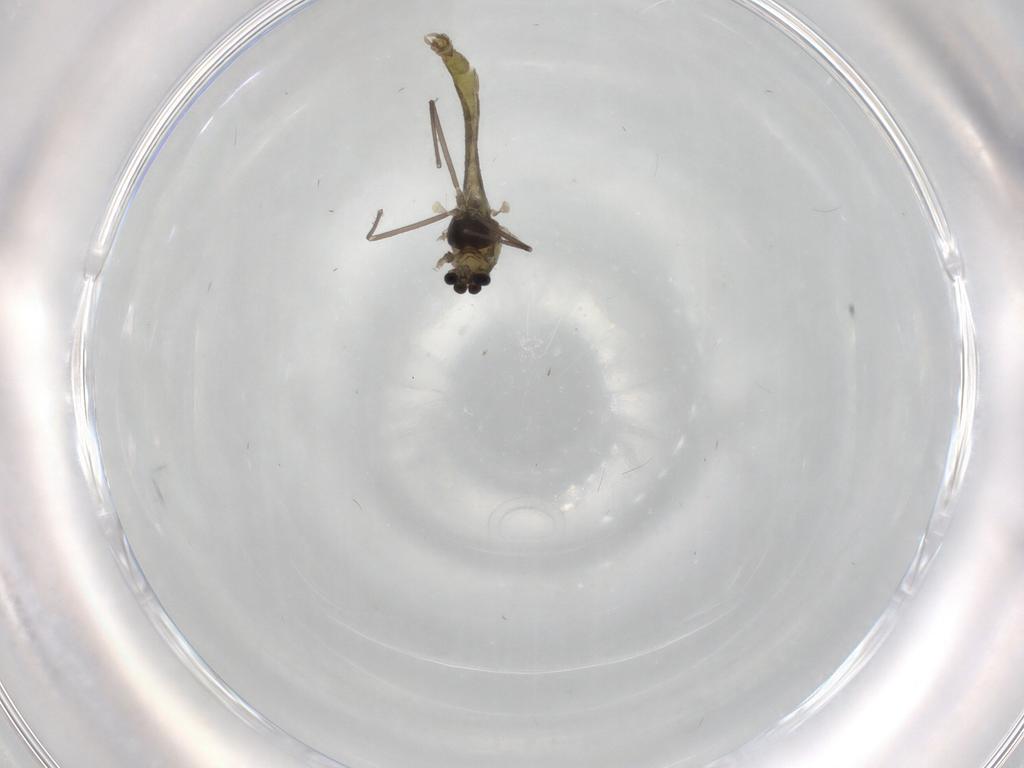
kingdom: Animalia
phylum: Arthropoda
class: Insecta
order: Diptera
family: Chironomidae
